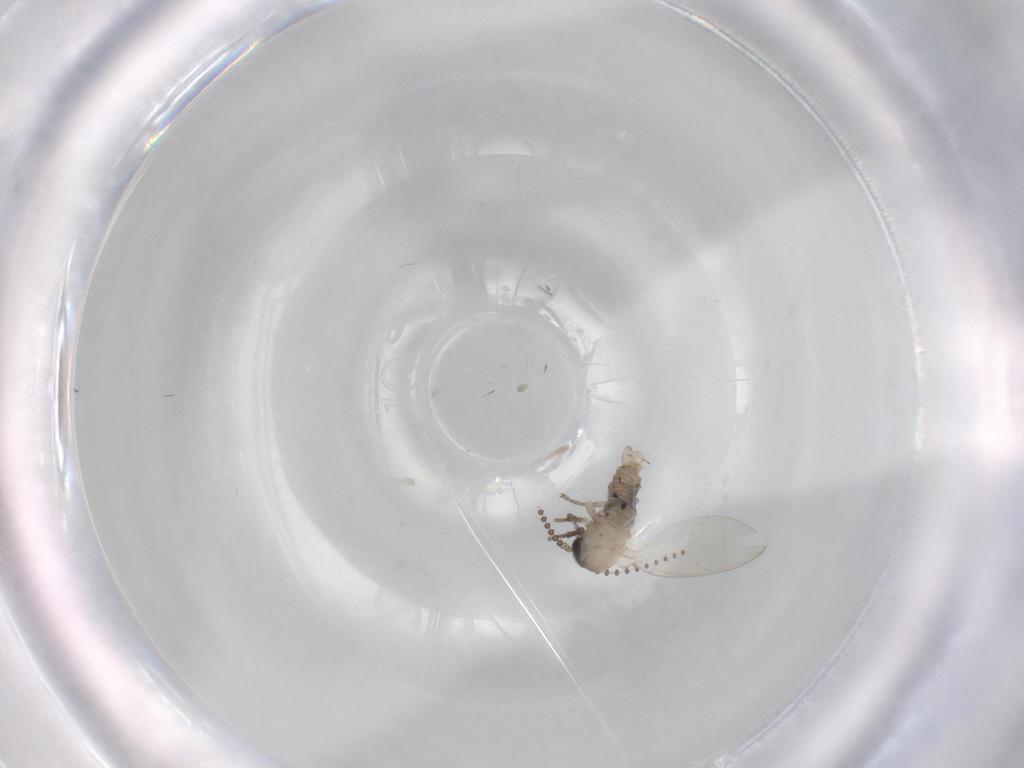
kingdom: Animalia
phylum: Arthropoda
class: Insecta
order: Diptera
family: Psychodidae
